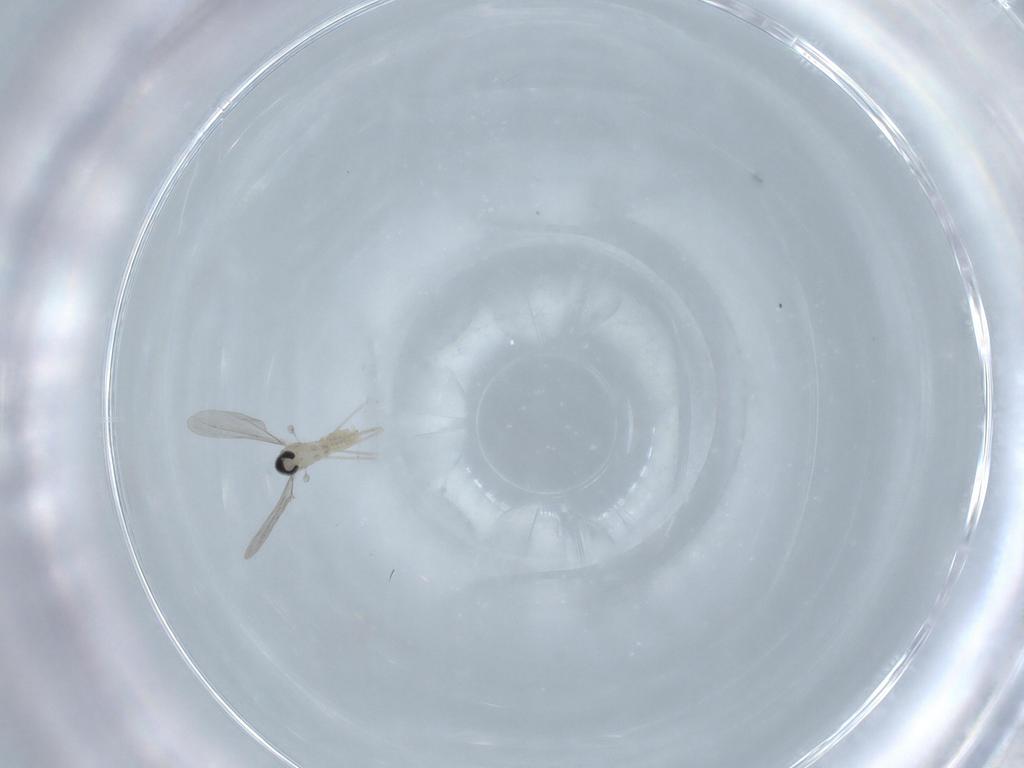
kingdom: Animalia
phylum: Arthropoda
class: Insecta
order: Diptera
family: Cecidomyiidae
